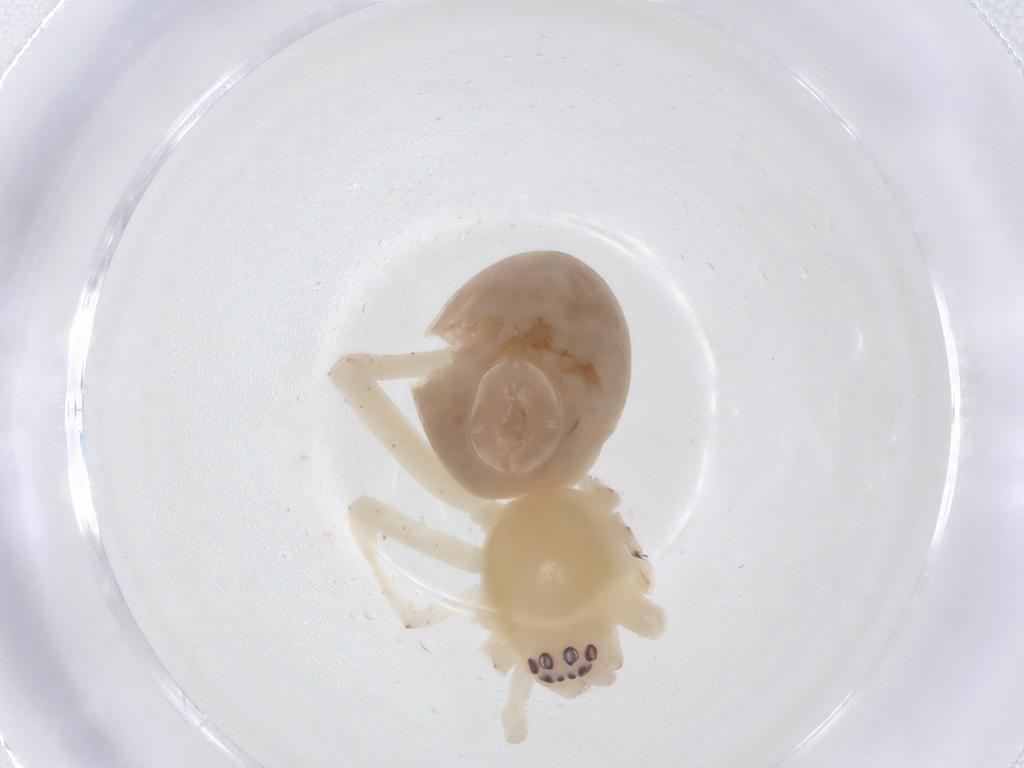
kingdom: Animalia
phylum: Arthropoda
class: Arachnida
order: Araneae
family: Anyphaenidae
